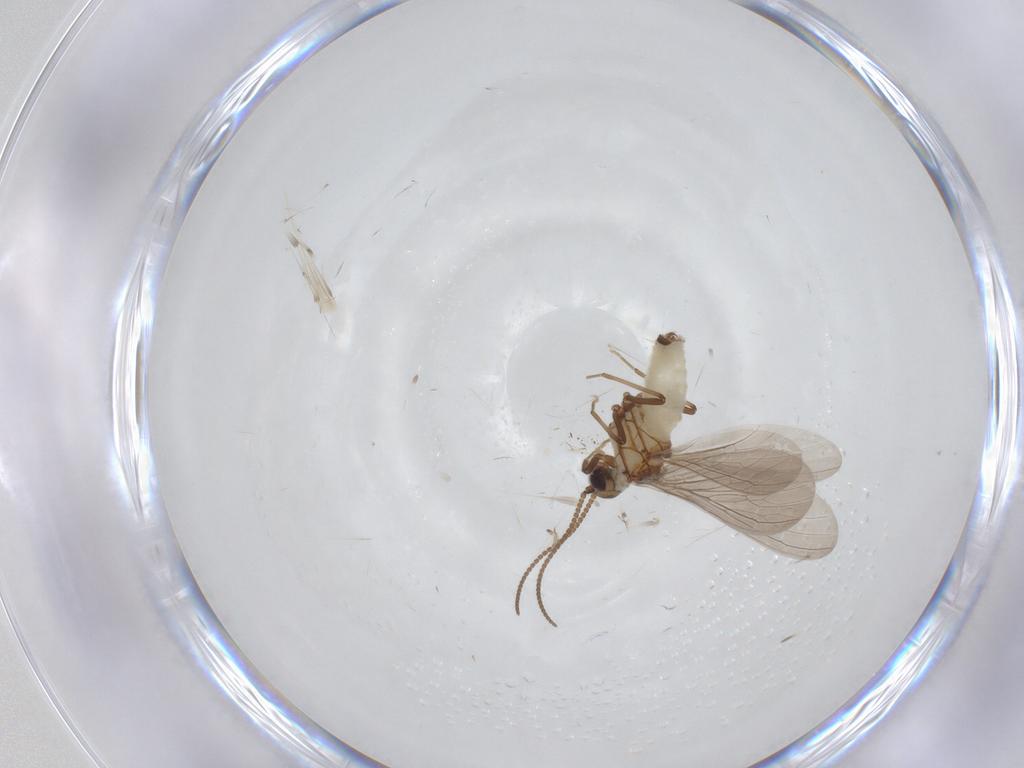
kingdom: Animalia
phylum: Arthropoda
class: Insecta
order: Neuroptera
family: Coniopterygidae
